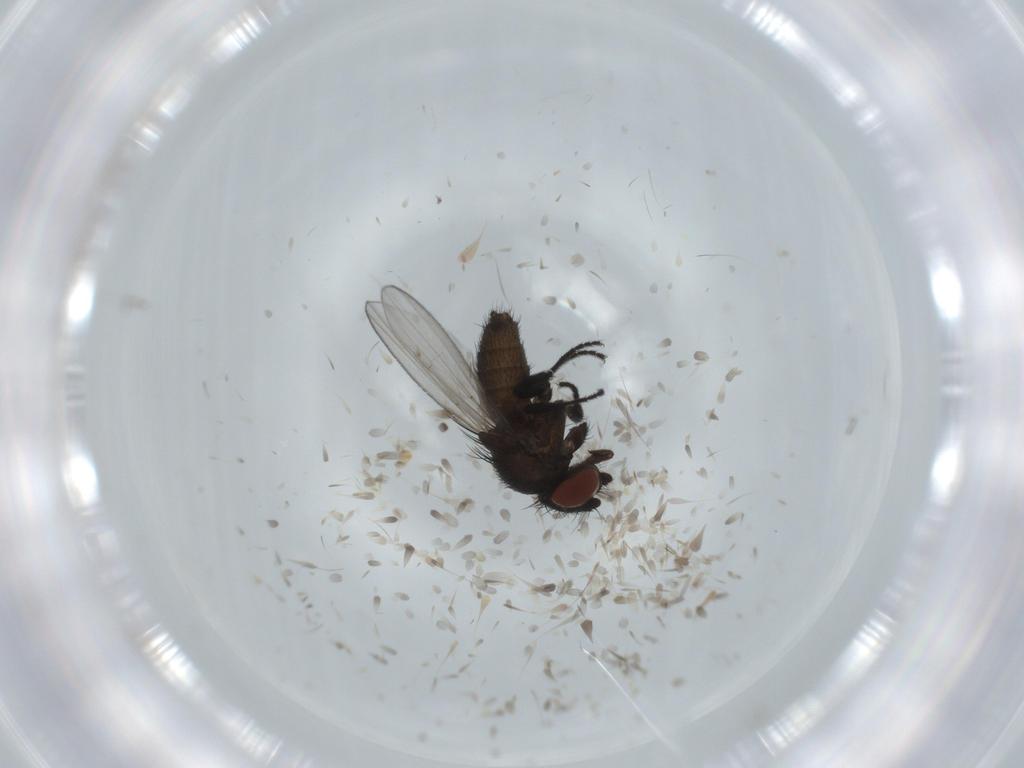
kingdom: Animalia
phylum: Arthropoda
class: Insecta
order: Diptera
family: Milichiidae
